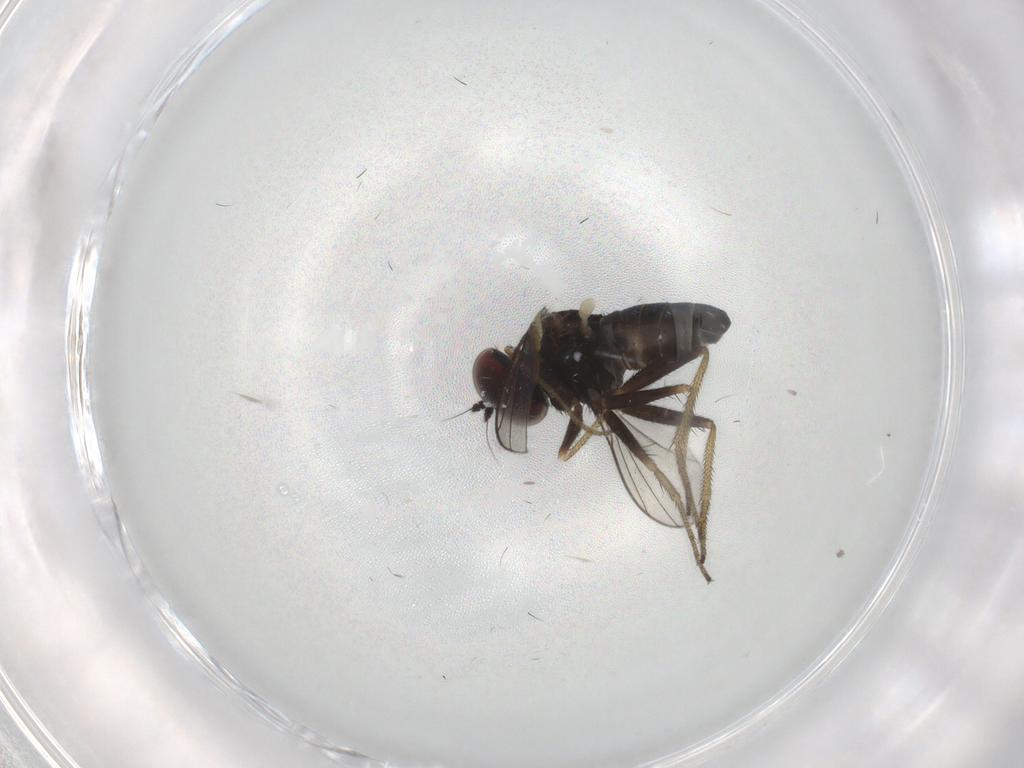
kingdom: Animalia
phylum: Arthropoda
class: Insecta
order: Diptera
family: Dolichopodidae
